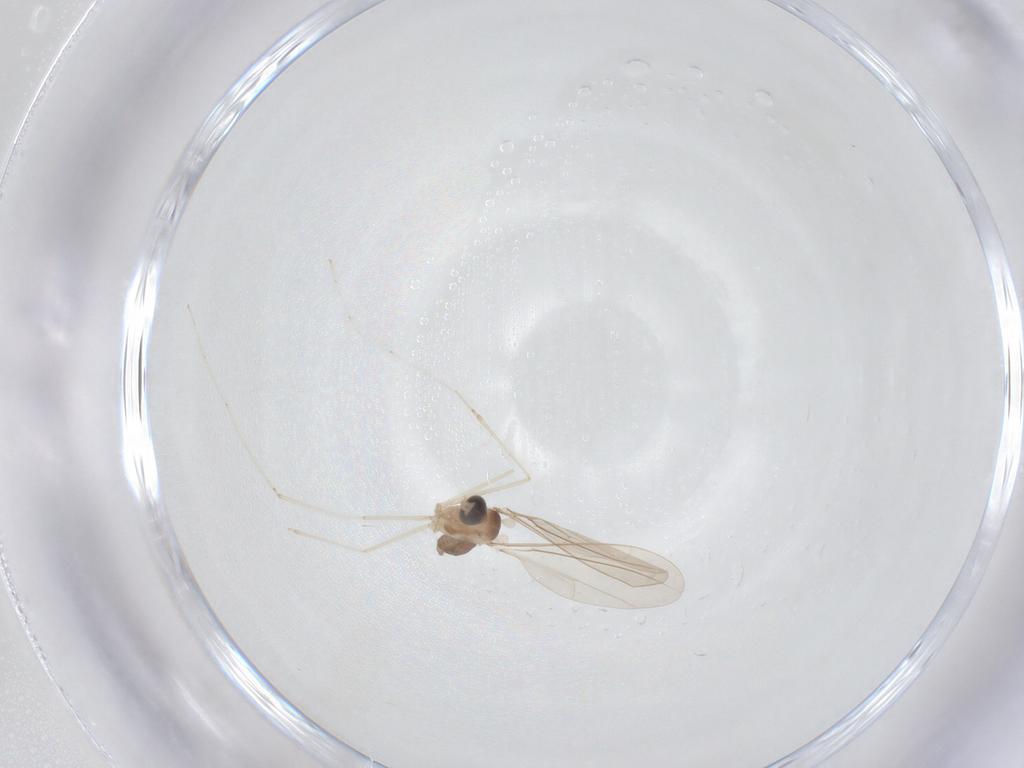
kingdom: Animalia
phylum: Arthropoda
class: Insecta
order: Diptera
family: Cecidomyiidae
